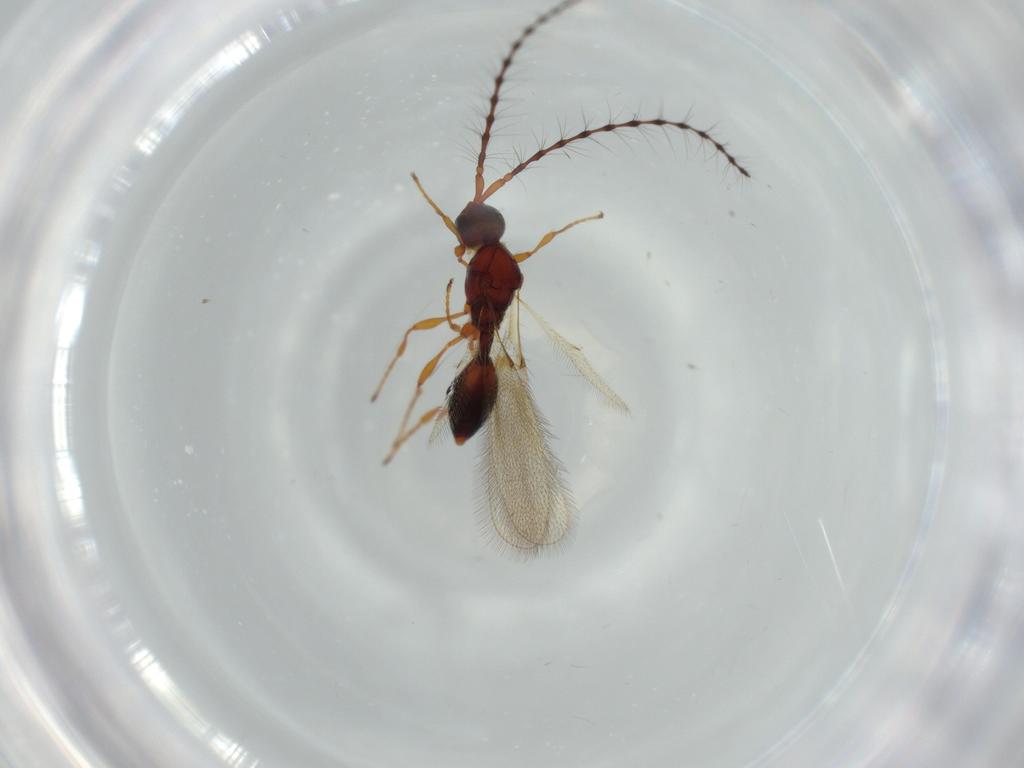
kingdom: Animalia
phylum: Arthropoda
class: Insecta
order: Hymenoptera
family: Diapriidae
